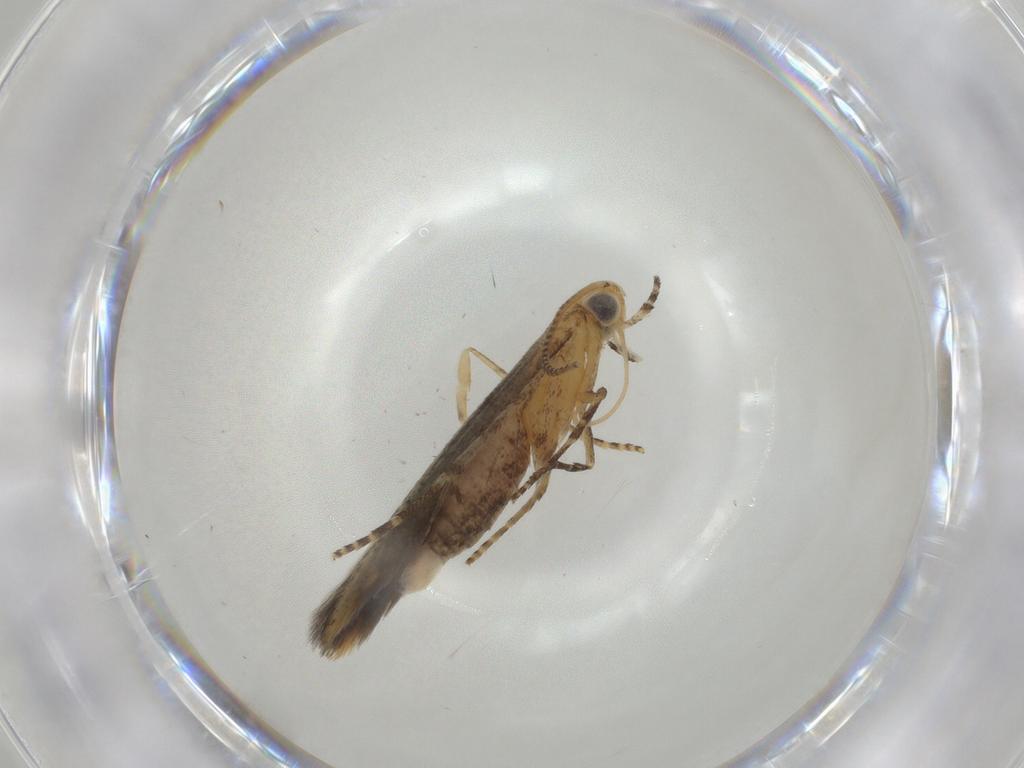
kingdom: Animalia
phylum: Arthropoda
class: Insecta
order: Lepidoptera
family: Batrachedridae
